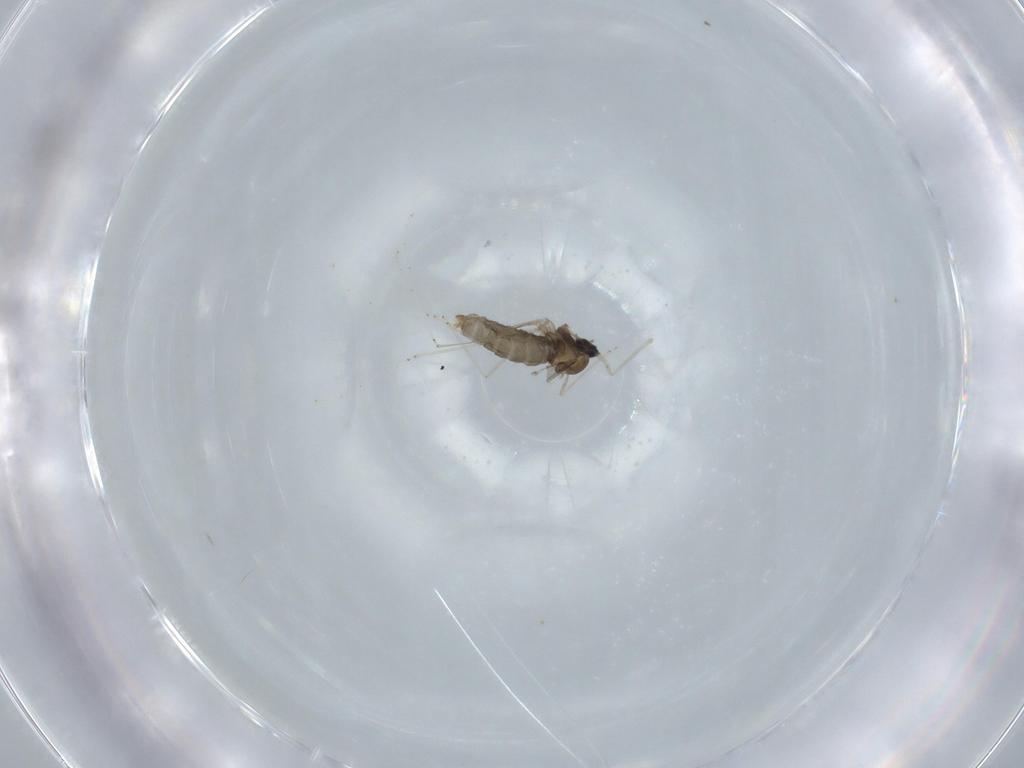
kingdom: Animalia
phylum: Arthropoda
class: Insecta
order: Diptera
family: Cecidomyiidae
